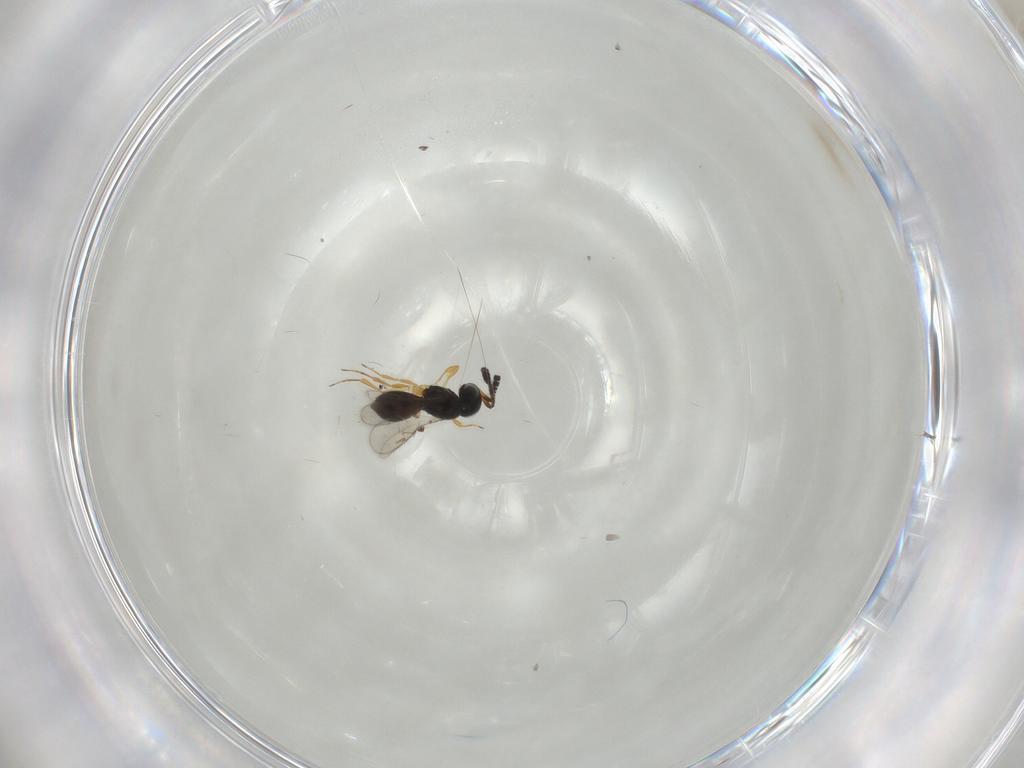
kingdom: Animalia
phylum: Arthropoda
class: Insecta
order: Hymenoptera
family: Scelionidae
